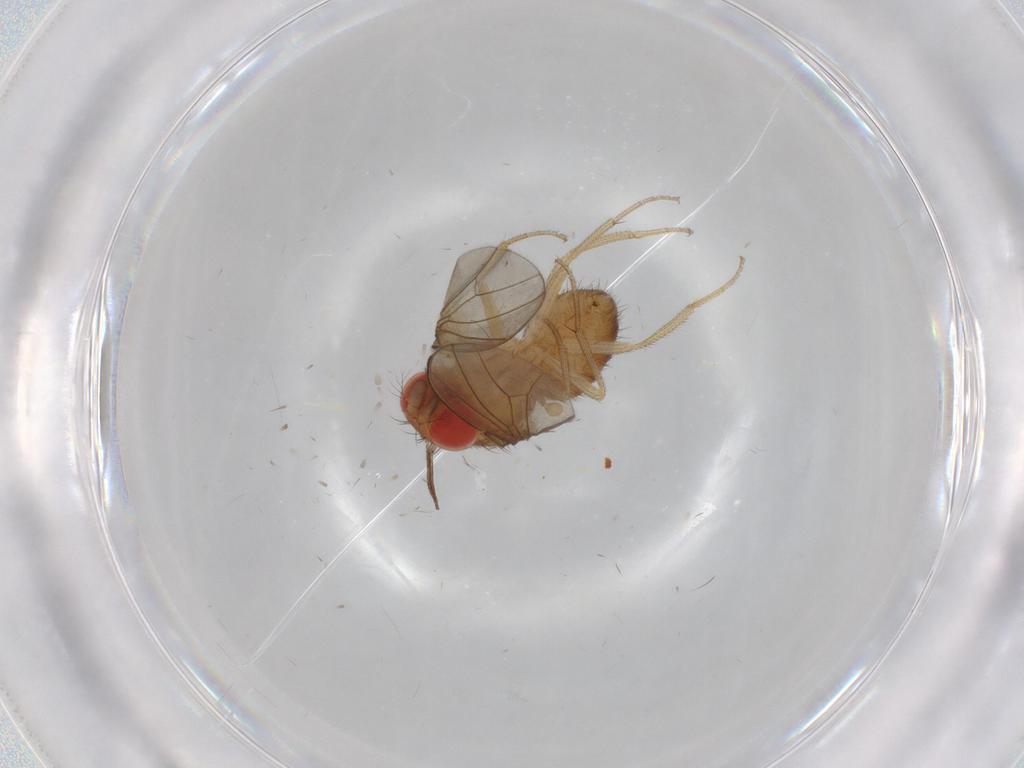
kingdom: Animalia
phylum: Arthropoda
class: Insecta
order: Diptera
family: Drosophilidae
